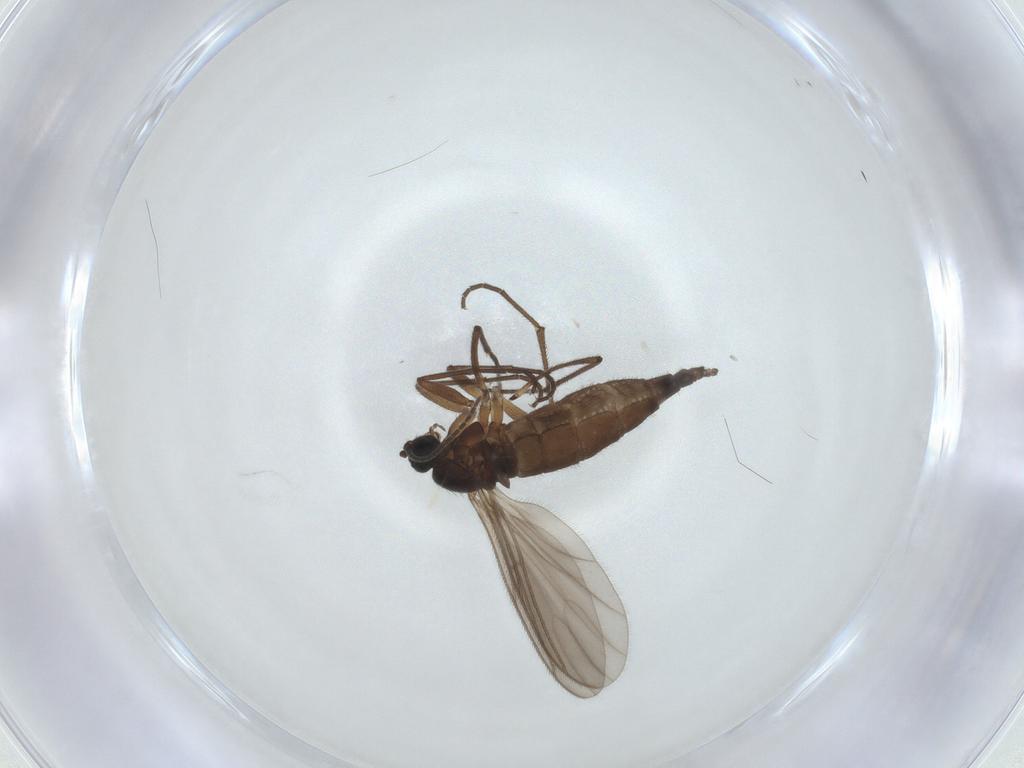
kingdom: Animalia
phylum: Arthropoda
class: Insecta
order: Diptera
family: Sciaridae
